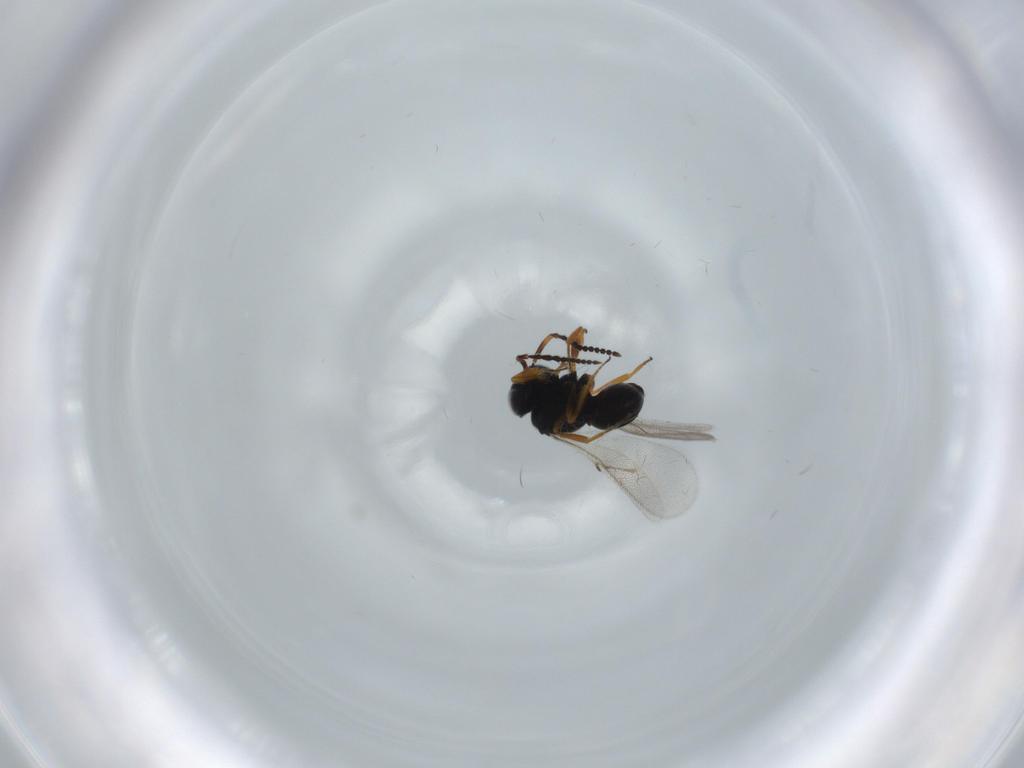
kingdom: Animalia
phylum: Arthropoda
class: Insecta
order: Hymenoptera
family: Scelionidae
